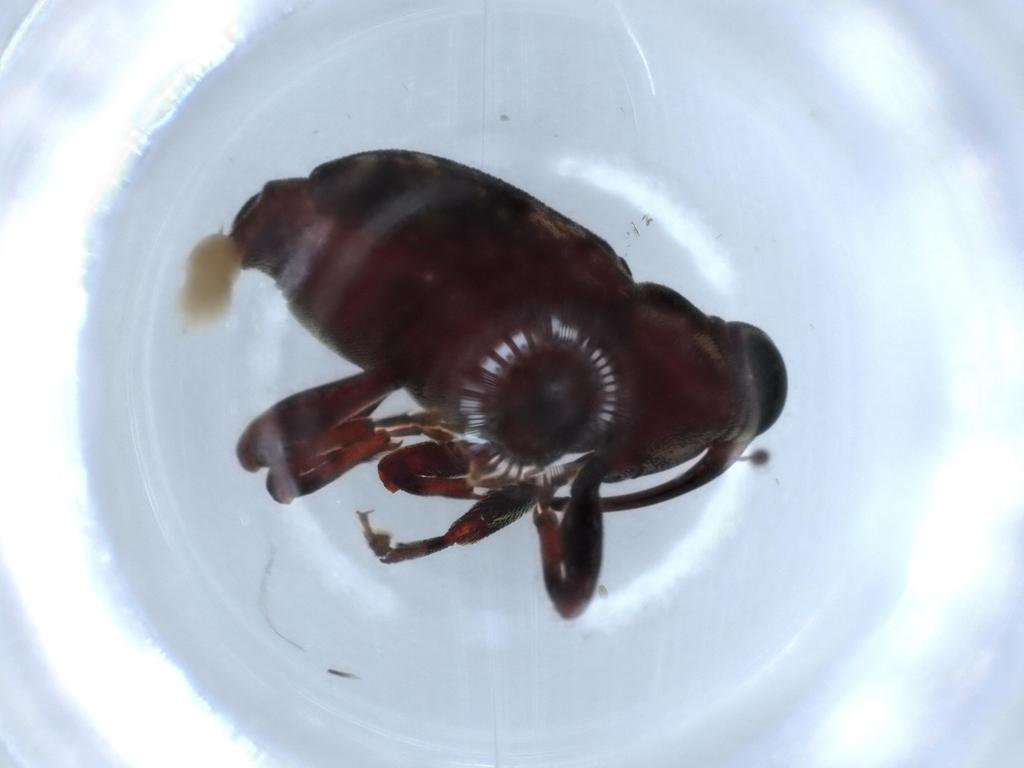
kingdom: Animalia
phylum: Arthropoda
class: Insecta
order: Coleoptera
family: Curculionidae
